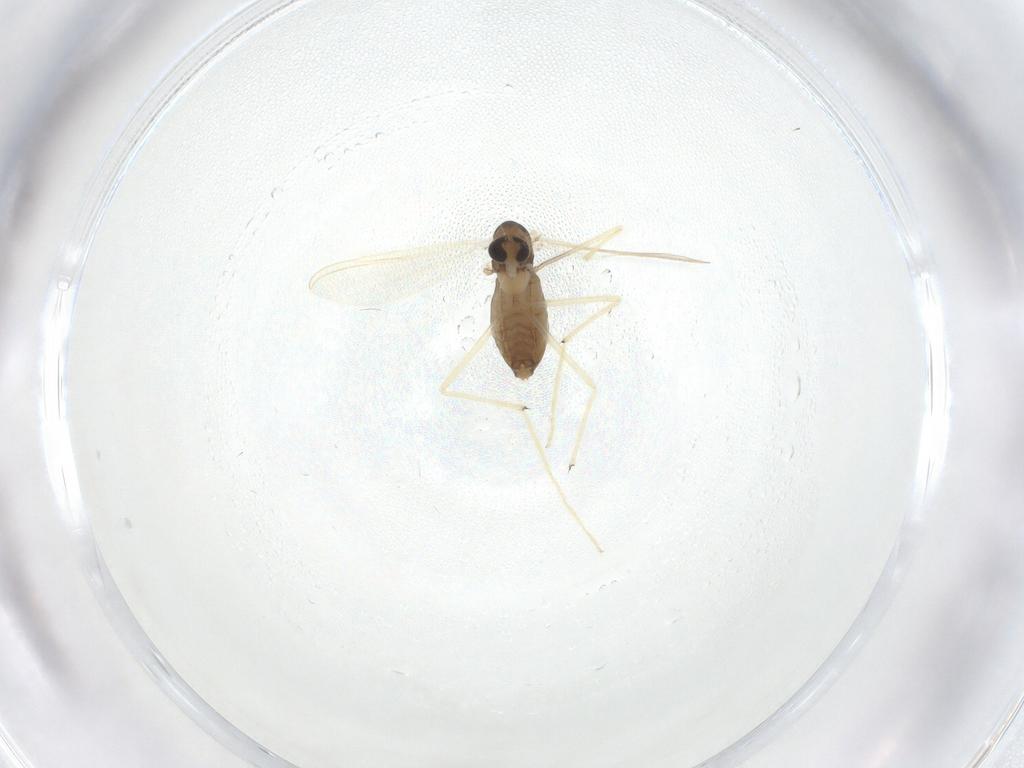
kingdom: Animalia
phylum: Arthropoda
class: Insecta
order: Diptera
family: Chironomidae
